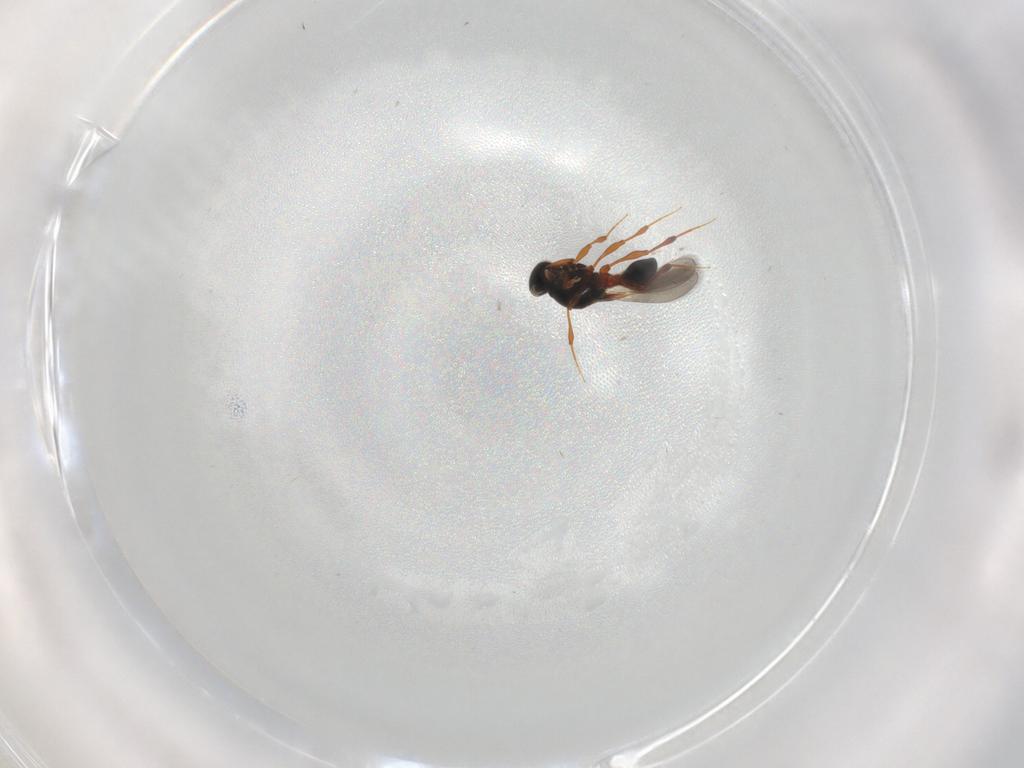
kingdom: Animalia
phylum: Arthropoda
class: Insecta
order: Hymenoptera
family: Platygastridae
